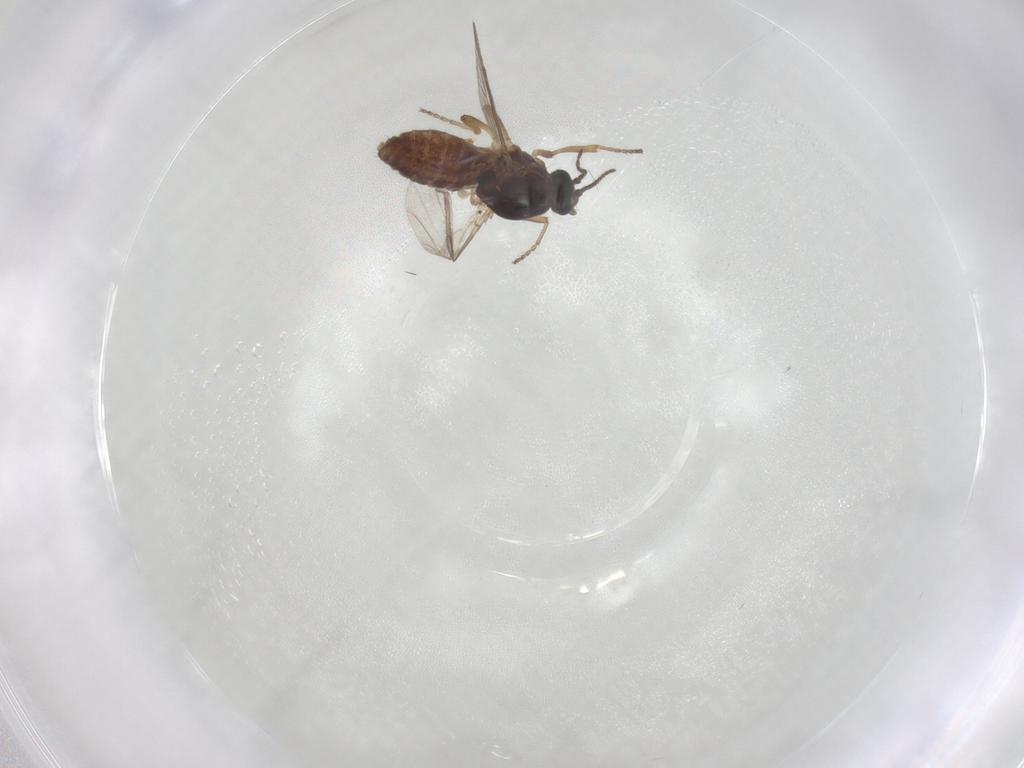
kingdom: Animalia
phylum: Arthropoda
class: Insecta
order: Diptera
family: Ceratopogonidae
